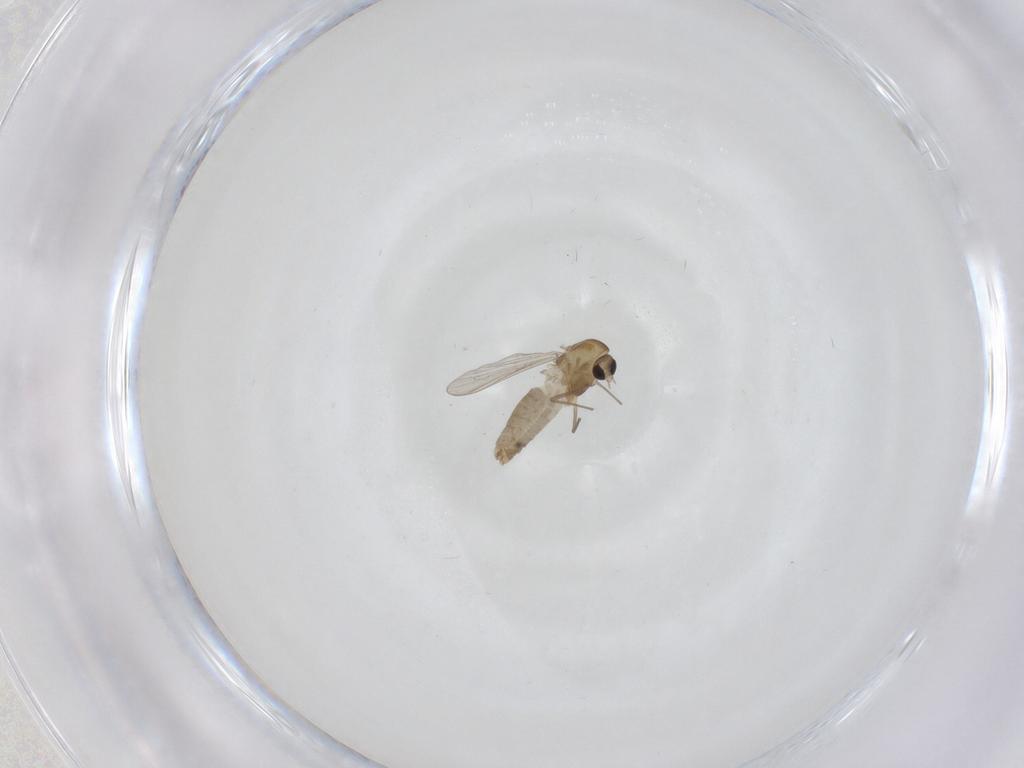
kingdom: Animalia
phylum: Arthropoda
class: Insecta
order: Diptera
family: Chironomidae
